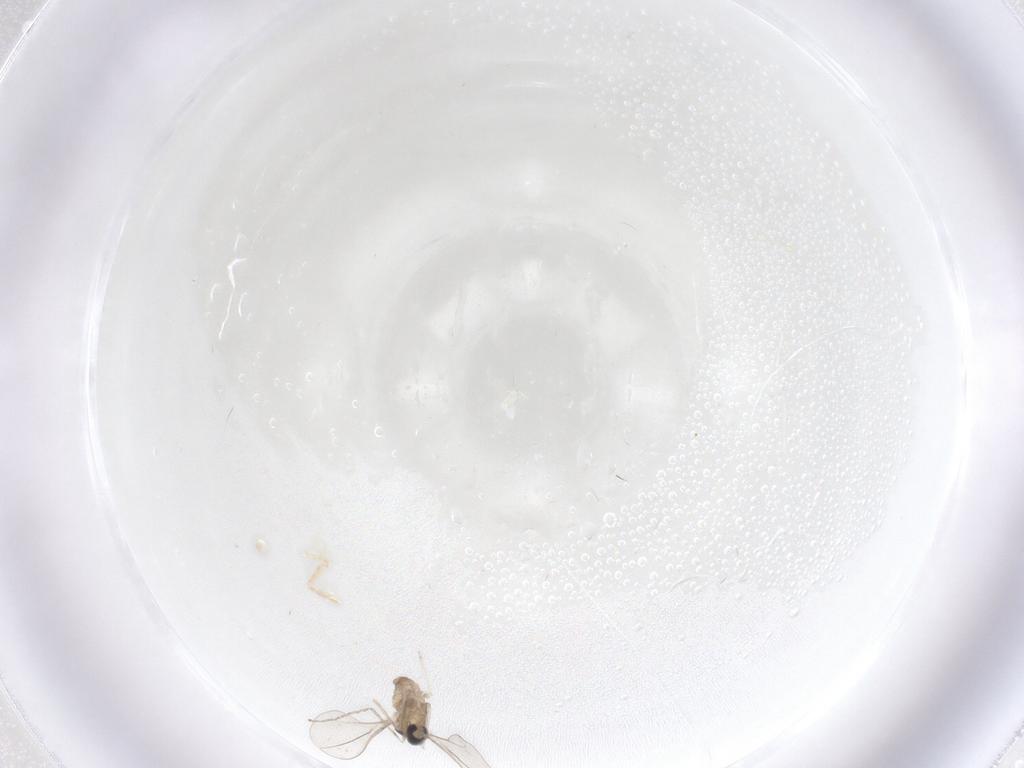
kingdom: Animalia
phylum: Arthropoda
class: Insecta
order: Diptera
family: Cecidomyiidae
